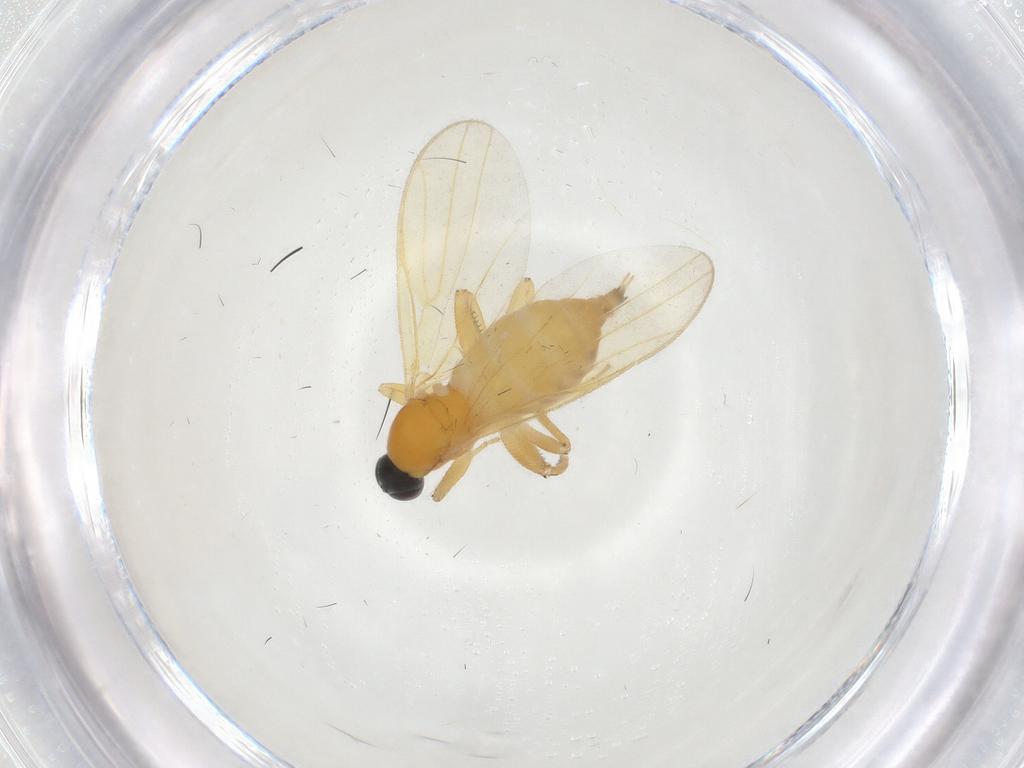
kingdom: Animalia
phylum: Arthropoda
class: Insecta
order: Diptera
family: Hybotidae
